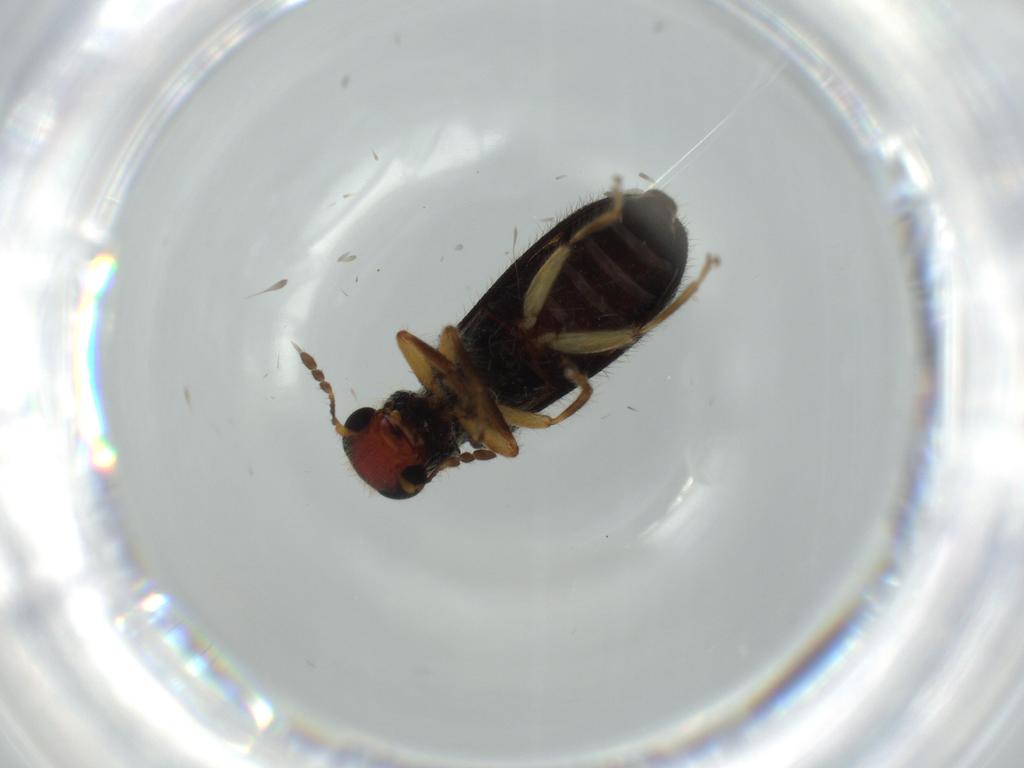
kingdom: Animalia
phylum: Arthropoda
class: Insecta
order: Coleoptera
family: Cleridae
